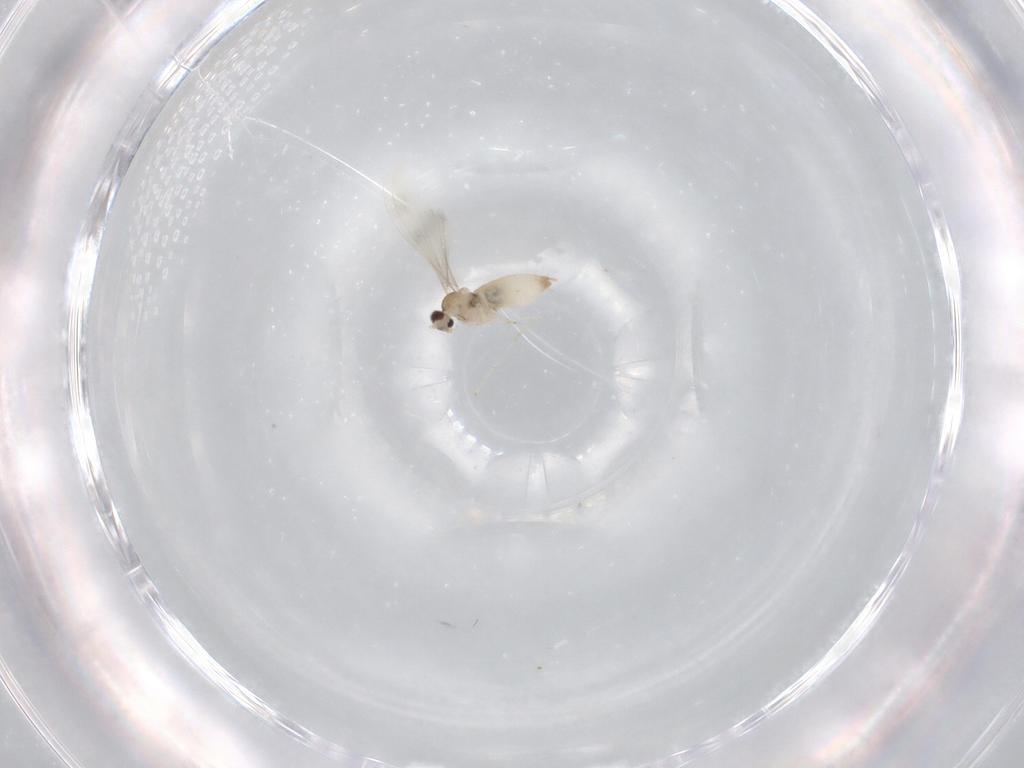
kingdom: Animalia
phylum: Arthropoda
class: Insecta
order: Diptera
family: Cecidomyiidae
